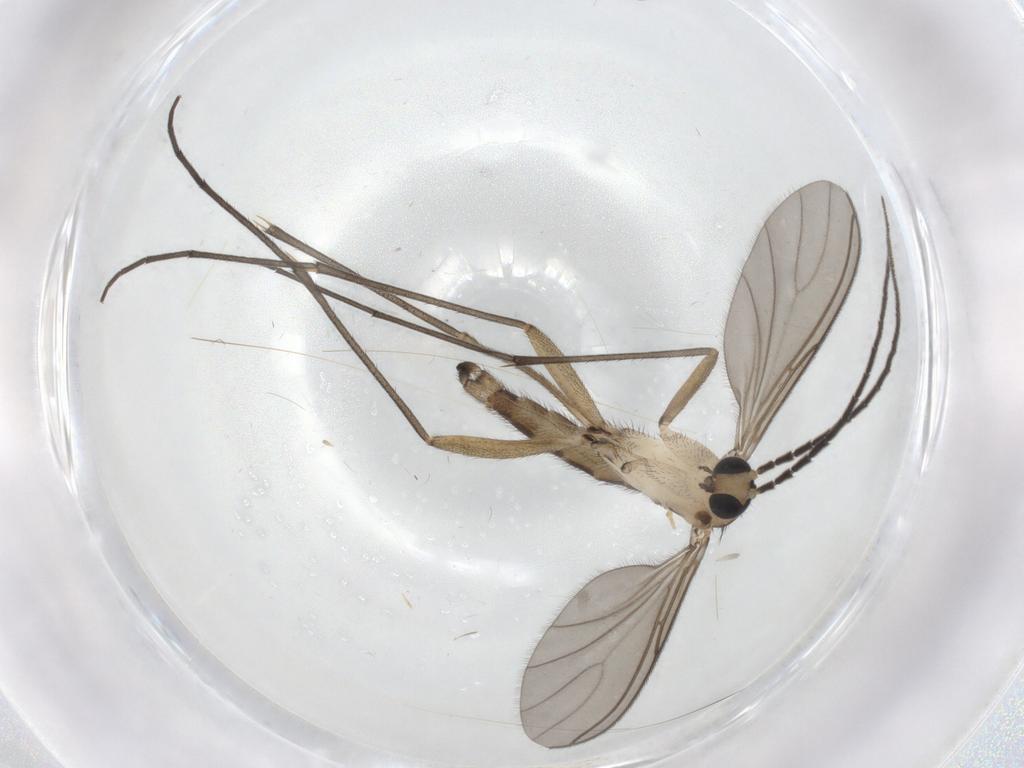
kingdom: Animalia
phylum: Arthropoda
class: Insecta
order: Diptera
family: Sciaridae
